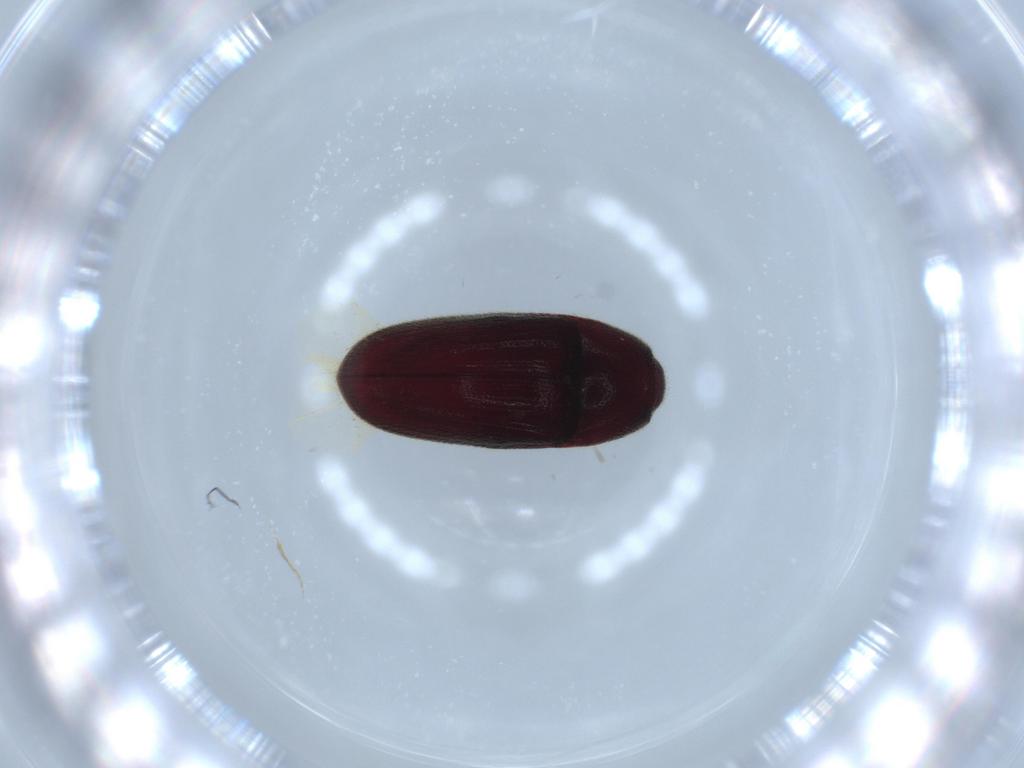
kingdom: Animalia
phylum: Arthropoda
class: Insecta
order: Coleoptera
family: Throscidae
